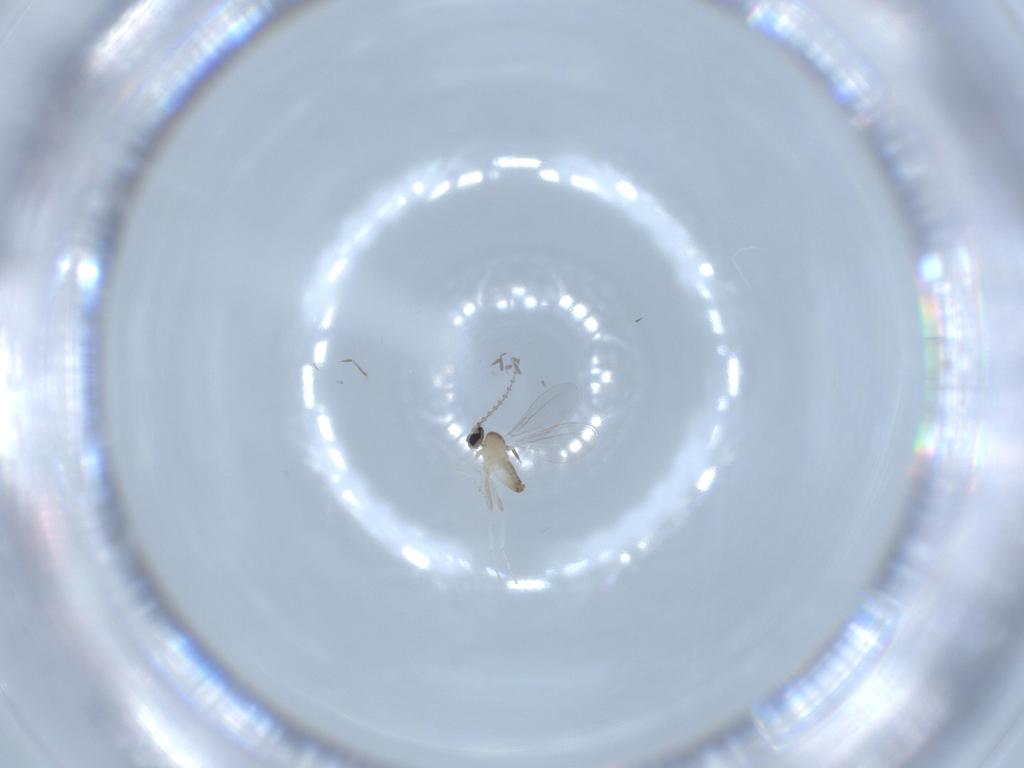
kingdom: Animalia
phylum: Arthropoda
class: Insecta
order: Diptera
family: Cecidomyiidae
